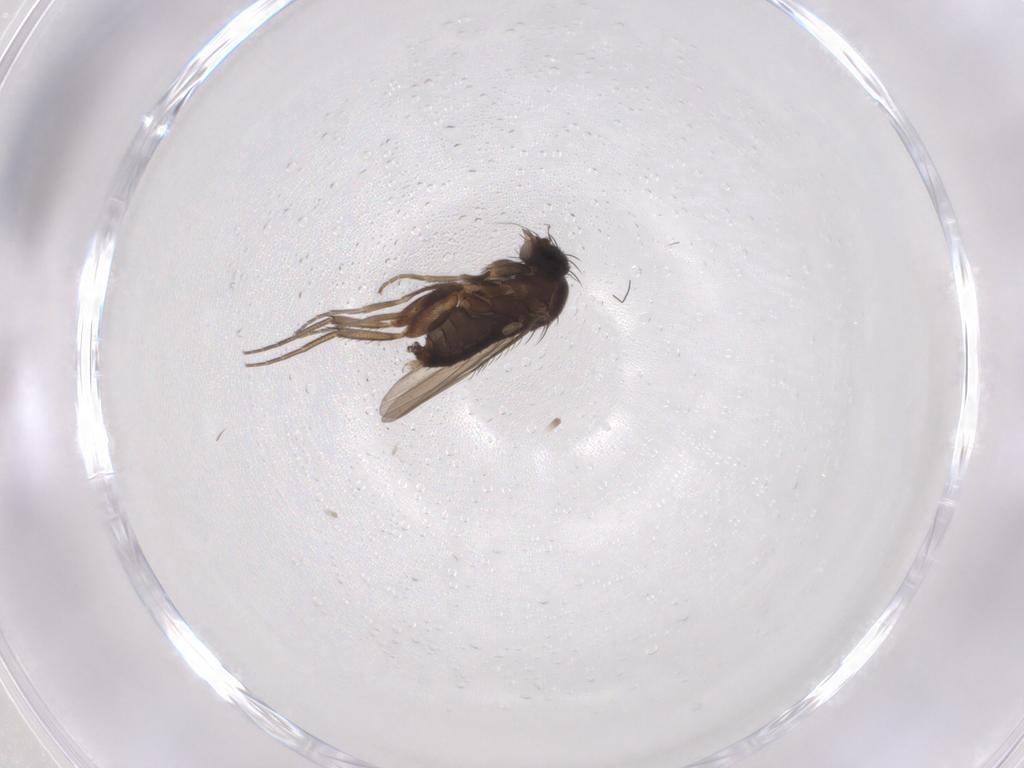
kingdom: Animalia
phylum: Arthropoda
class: Insecta
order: Diptera
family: Phoridae
